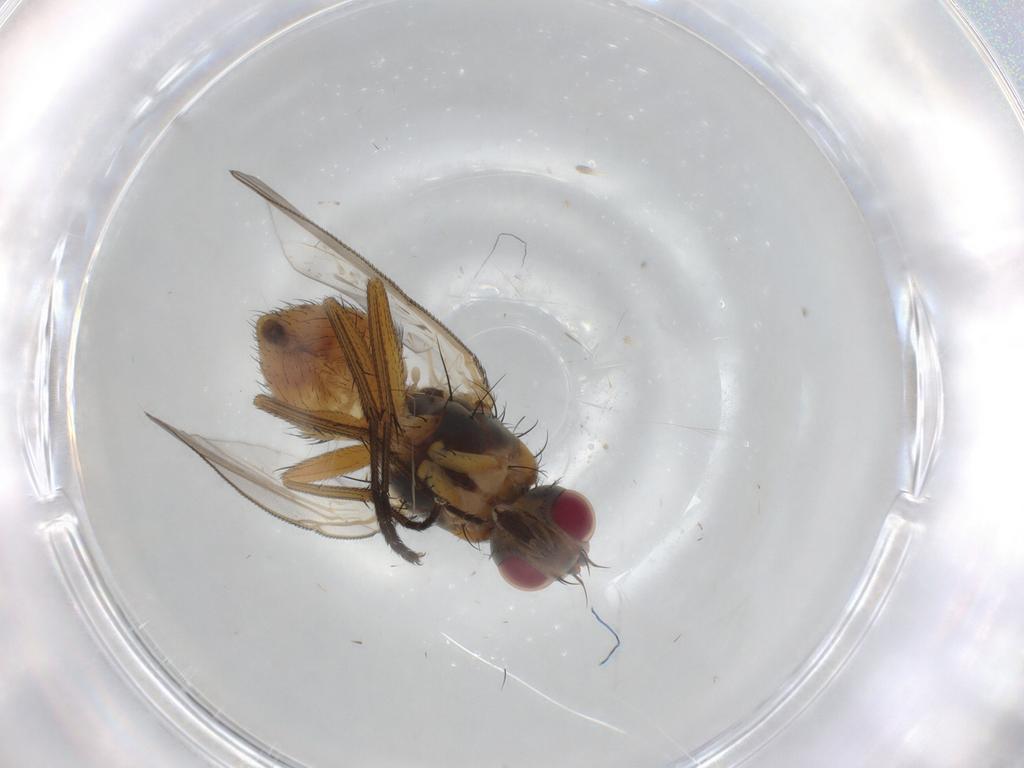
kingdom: Animalia
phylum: Arthropoda
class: Insecta
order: Diptera
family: Muscidae
